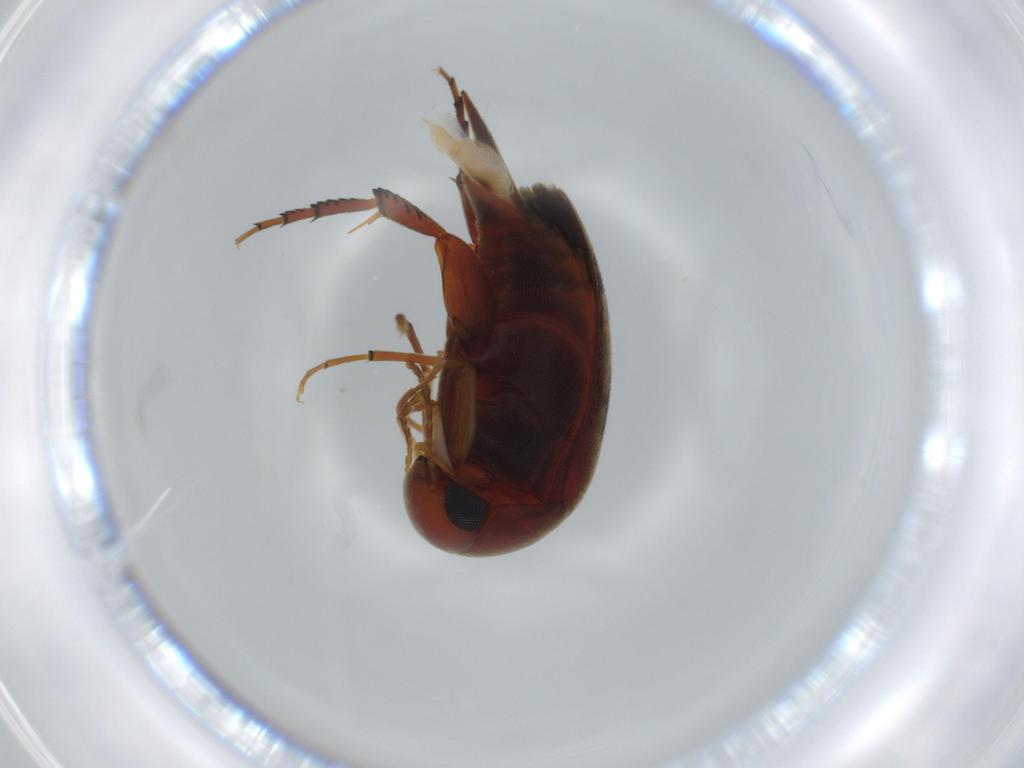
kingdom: Animalia
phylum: Arthropoda
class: Insecta
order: Coleoptera
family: Mordellidae
